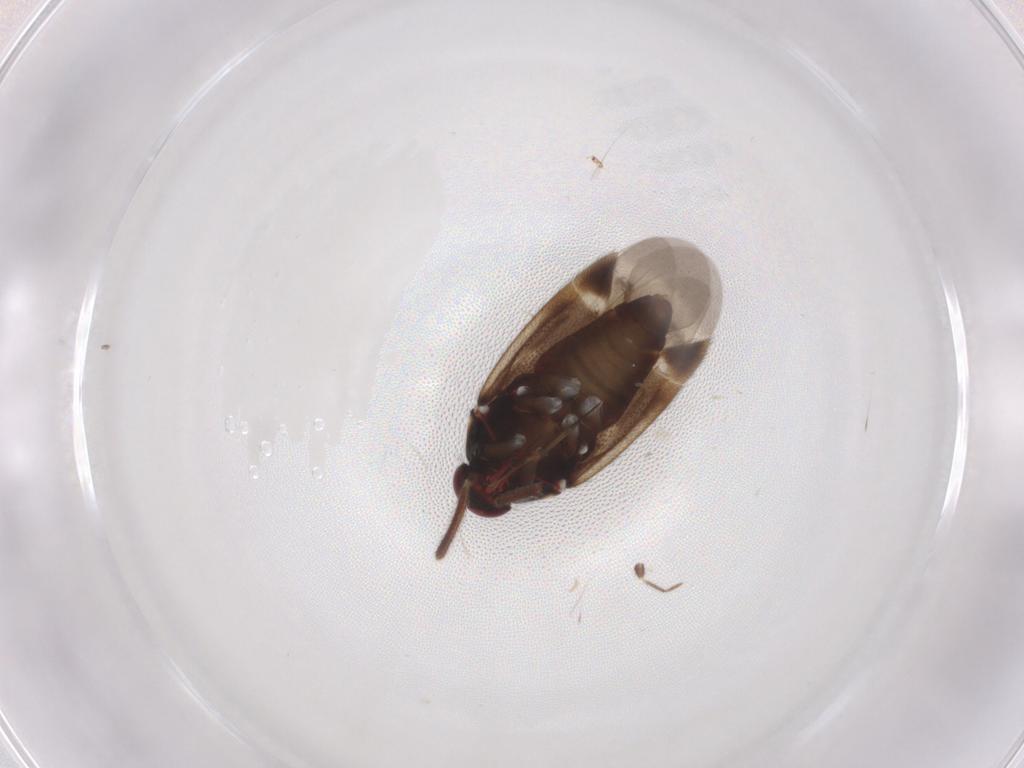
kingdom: Animalia
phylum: Arthropoda
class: Insecta
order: Hemiptera
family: Miridae
